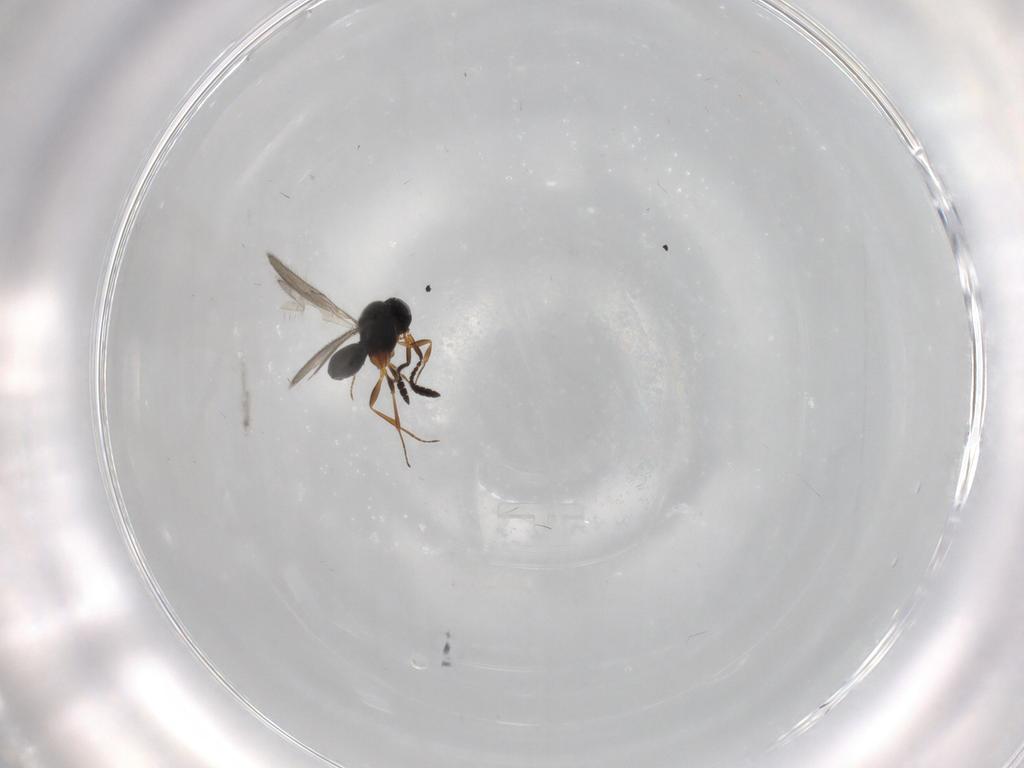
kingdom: Animalia
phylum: Arthropoda
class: Insecta
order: Hymenoptera
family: Scelionidae
